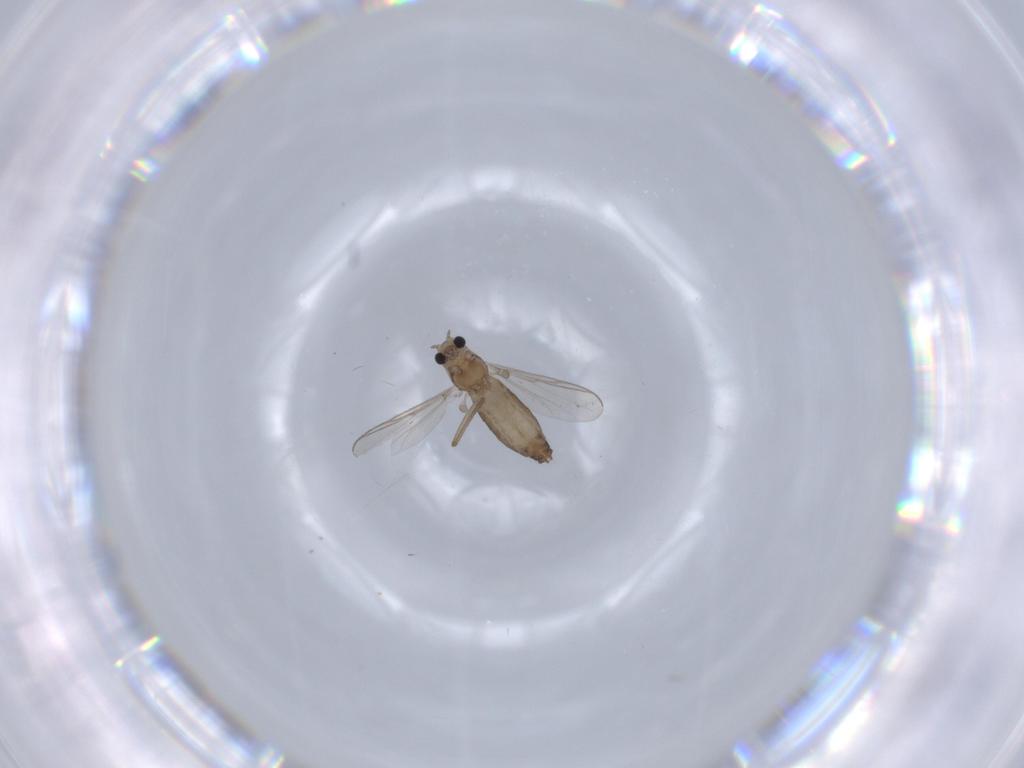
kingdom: Animalia
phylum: Arthropoda
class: Insecta
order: Diptera
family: Chironomidae
